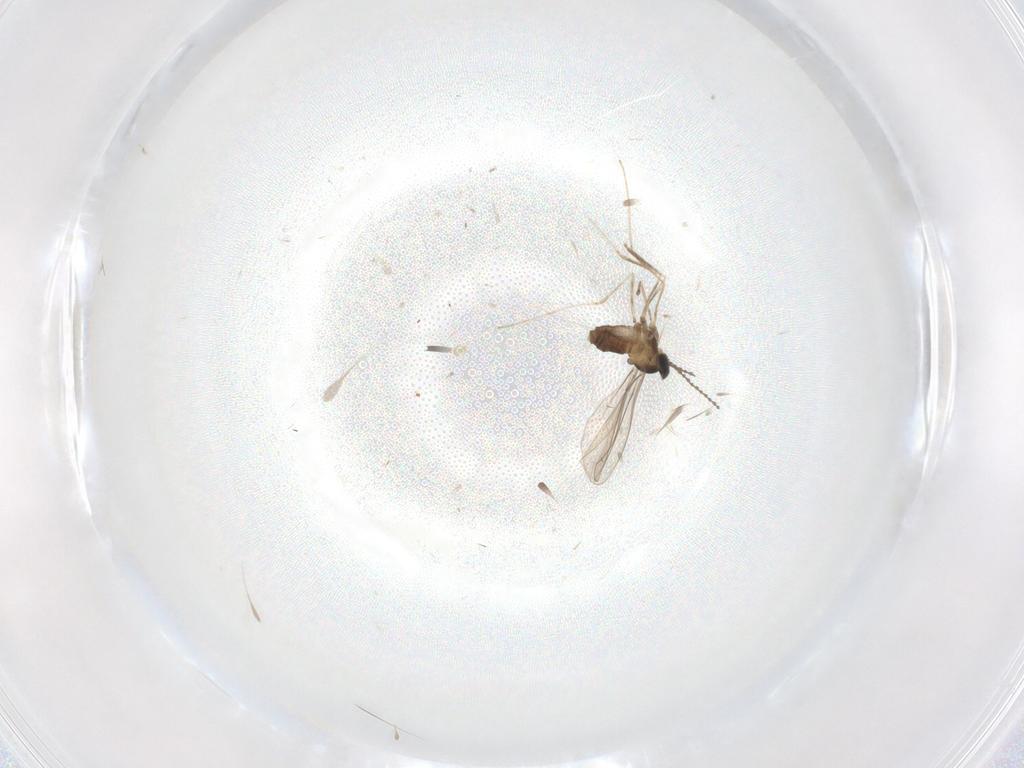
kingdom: Animalia
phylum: Arthropoda
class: Insecta
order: Diptera
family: Cecidomyiidae
